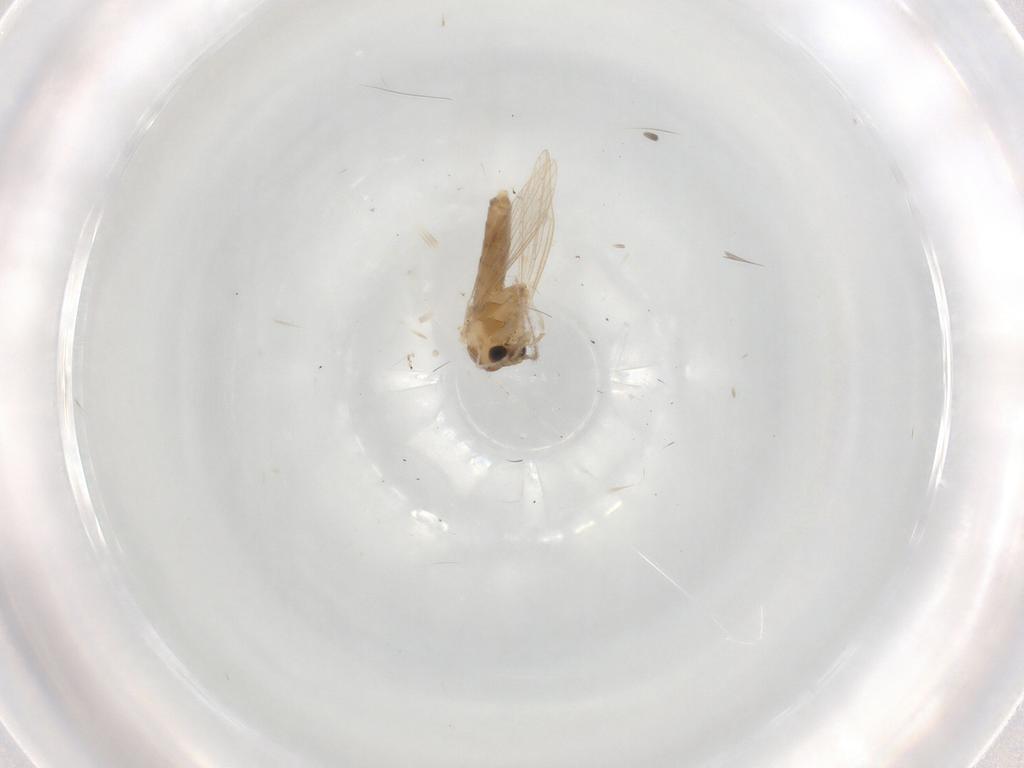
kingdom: Animalia
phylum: Arthropoda
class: Insecta
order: Diptera
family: Psychodidae
